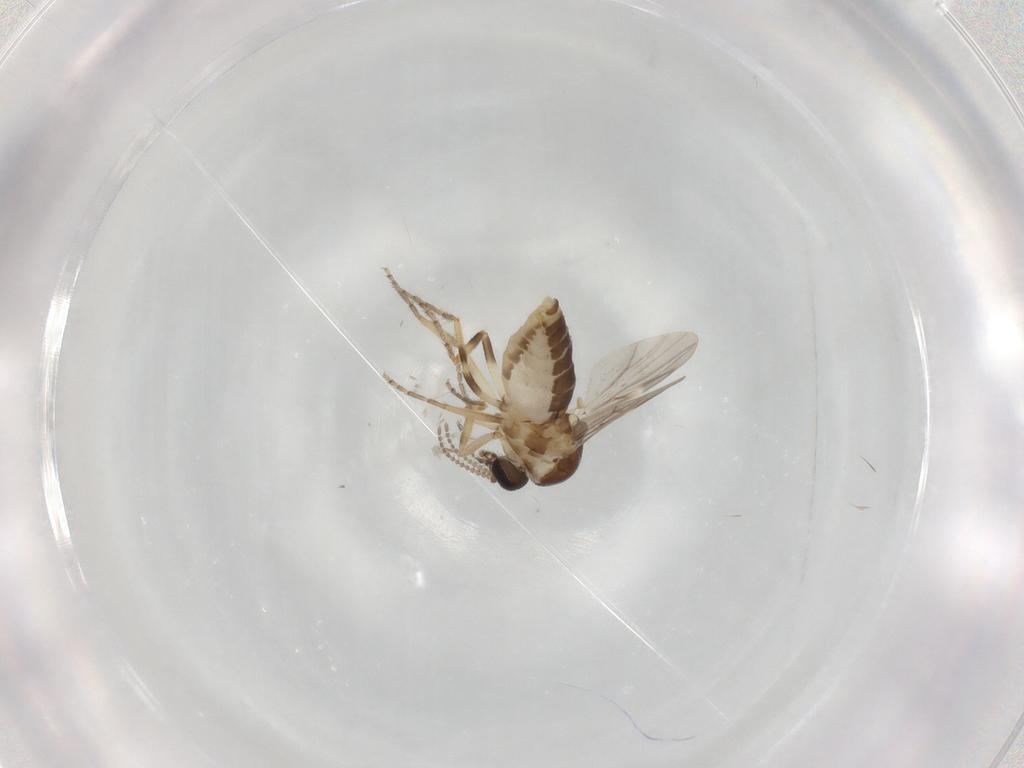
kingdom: Animalia
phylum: Arthropoda
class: Insecta
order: Diptera
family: Ceratopogonidae
